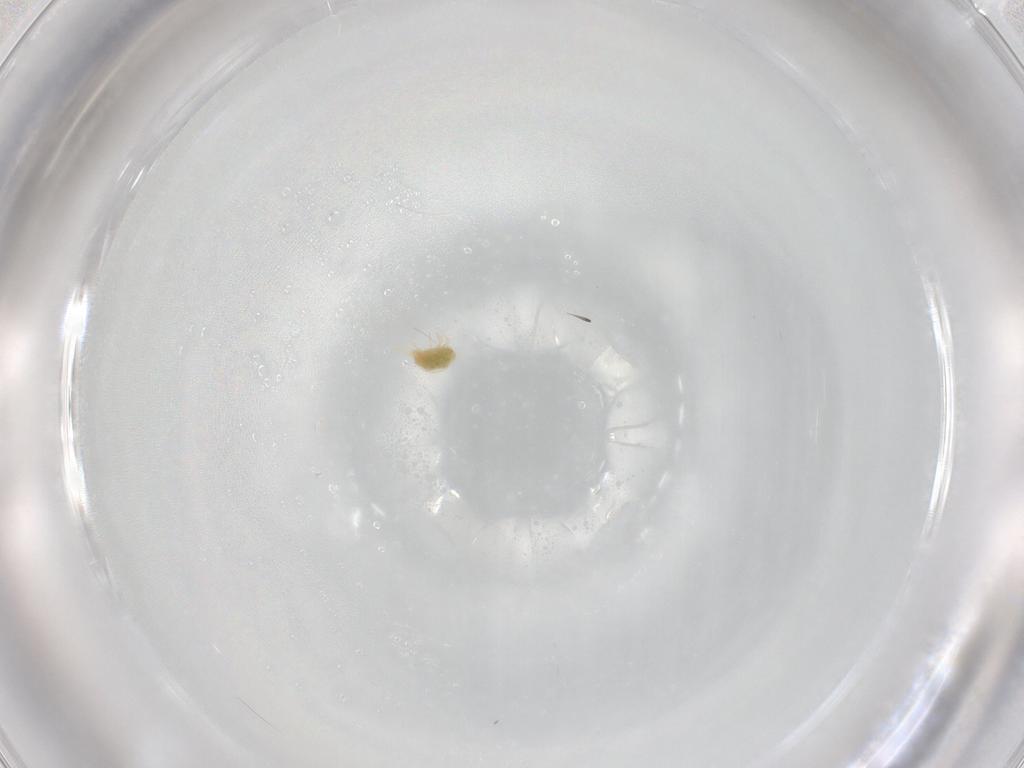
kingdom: Animalia
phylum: Arthropoda
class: Arachnida
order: Trombidiformes
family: Tetranychidae
